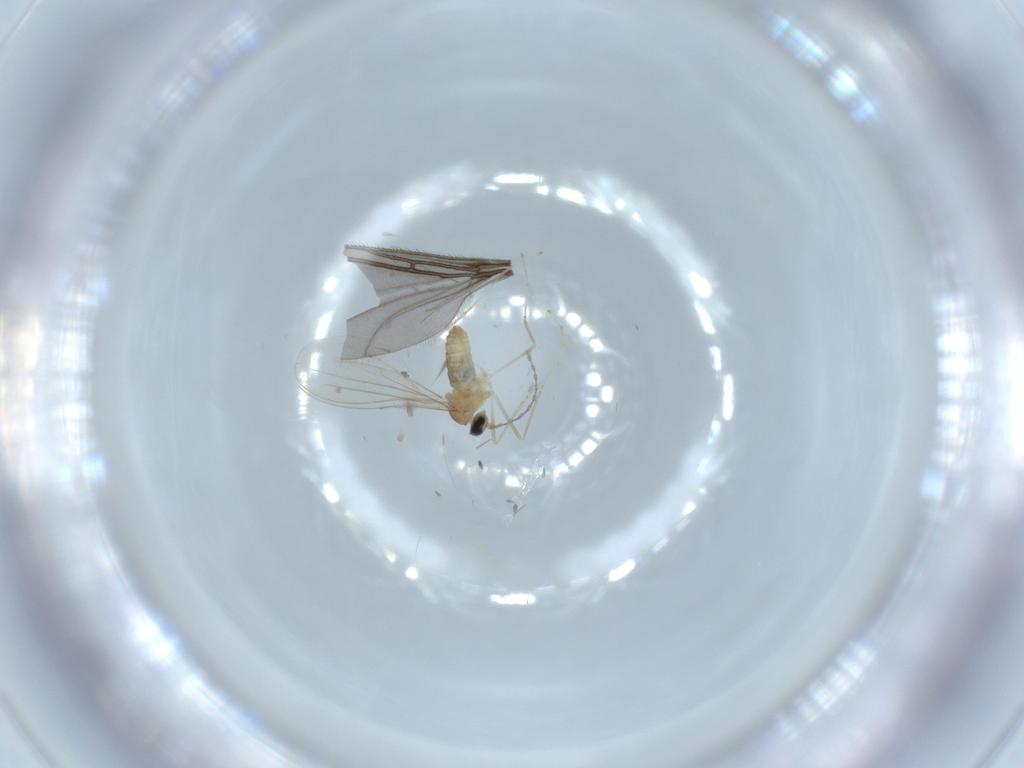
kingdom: Animalia
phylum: Arthropoda
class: Insecta
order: Diptera
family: Cecidomyiidae
